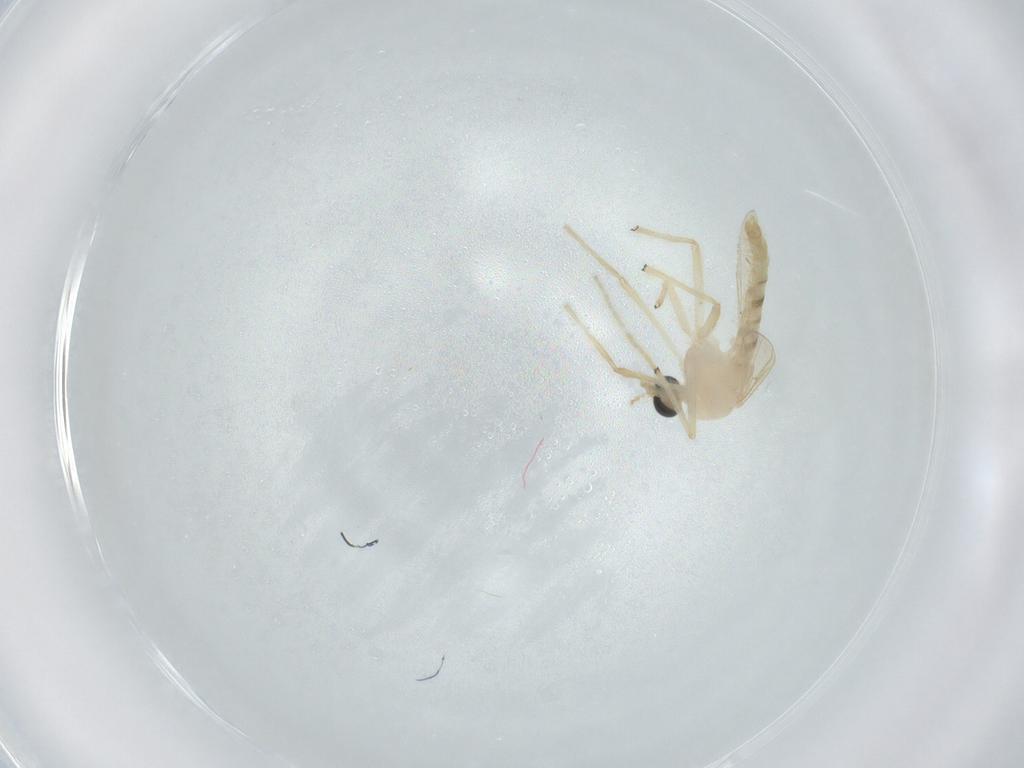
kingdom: Animalia
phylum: Arthropoda
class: Insecta
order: Diptera
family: Chironomidae
